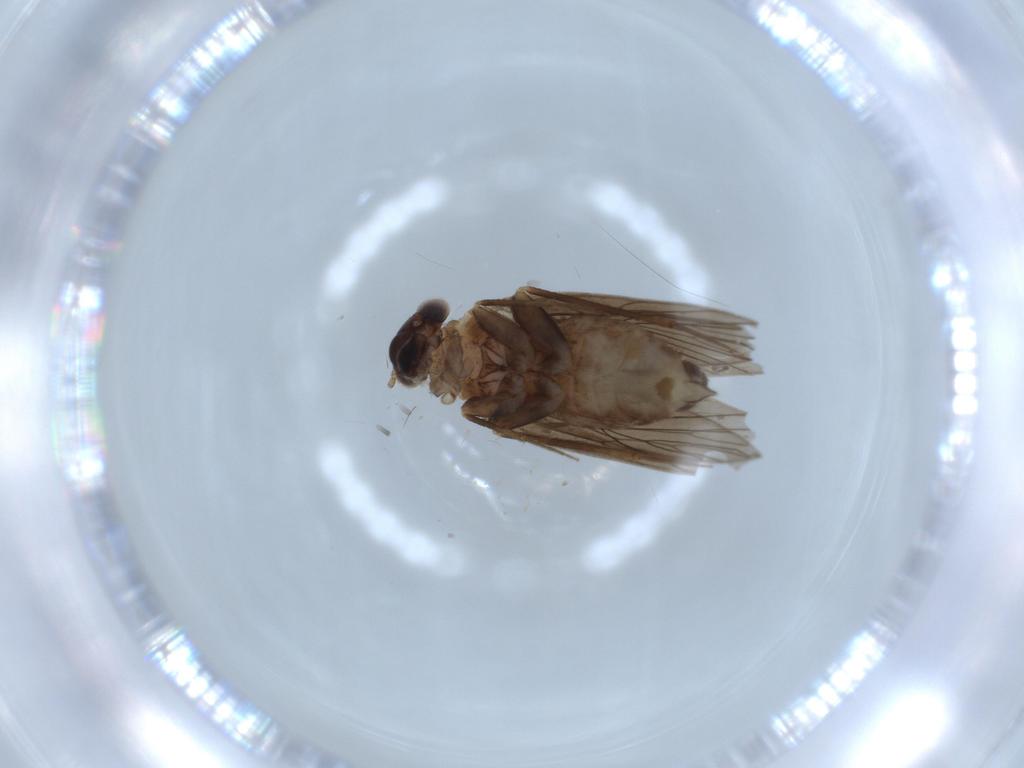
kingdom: Animalia
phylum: Arthropoda
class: Insecta
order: Psocodea
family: Lepidopsocidae
